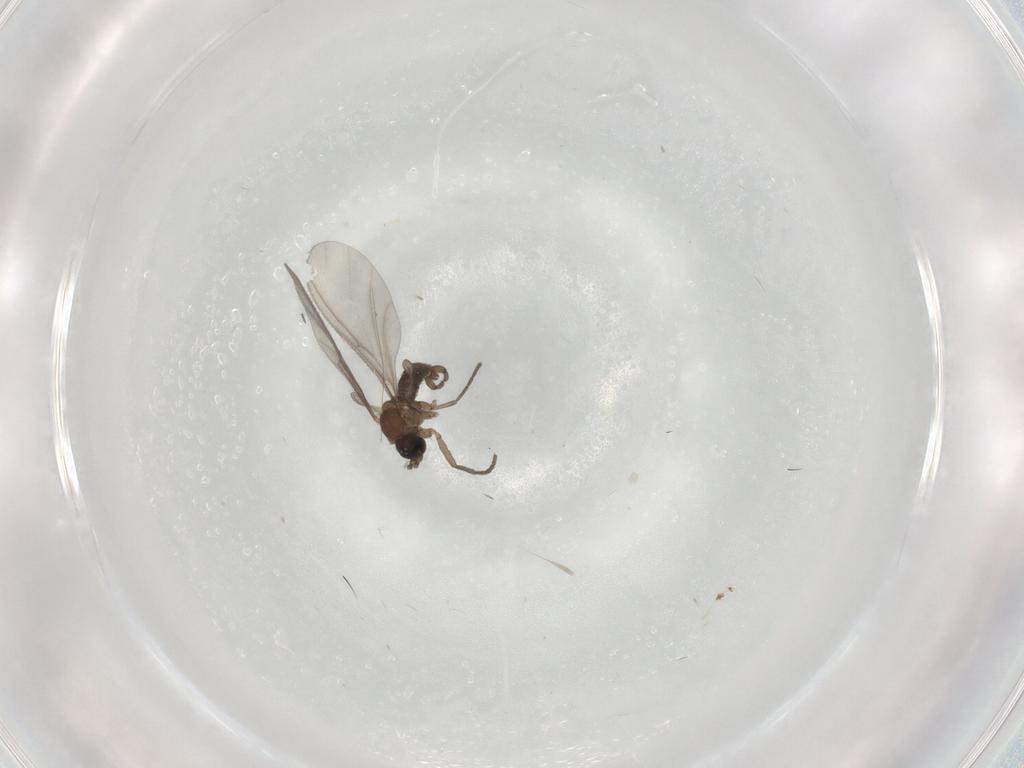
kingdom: Animalia
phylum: Arthropoda
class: Insecta
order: Diptera
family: Sciaridae
